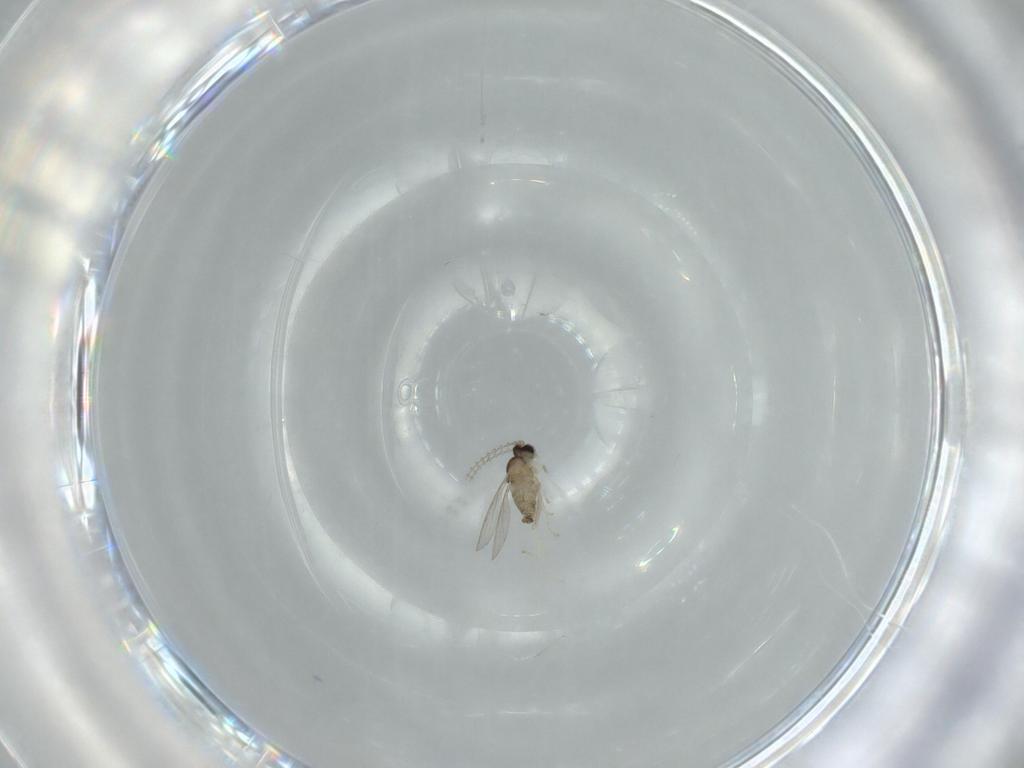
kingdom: Animalia
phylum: Arthropoda
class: Insecta
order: Diptera
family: Cecidomyiidae
